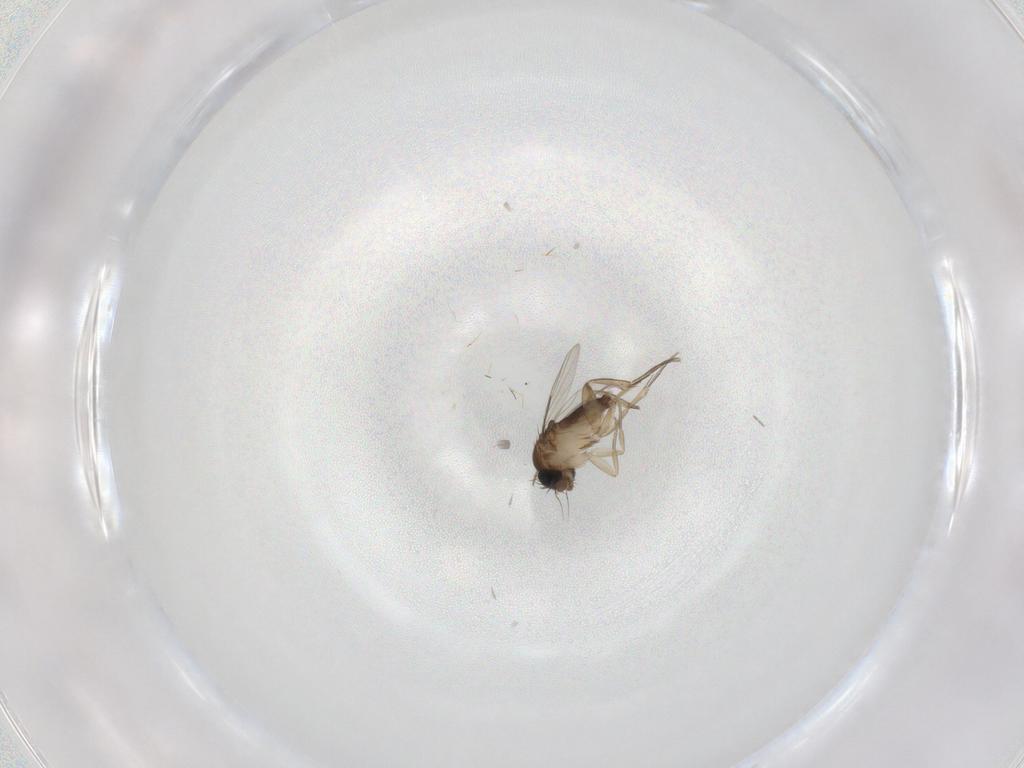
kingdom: Animalia
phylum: Arthropoda
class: Insecta
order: Diptera
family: Phoridae
